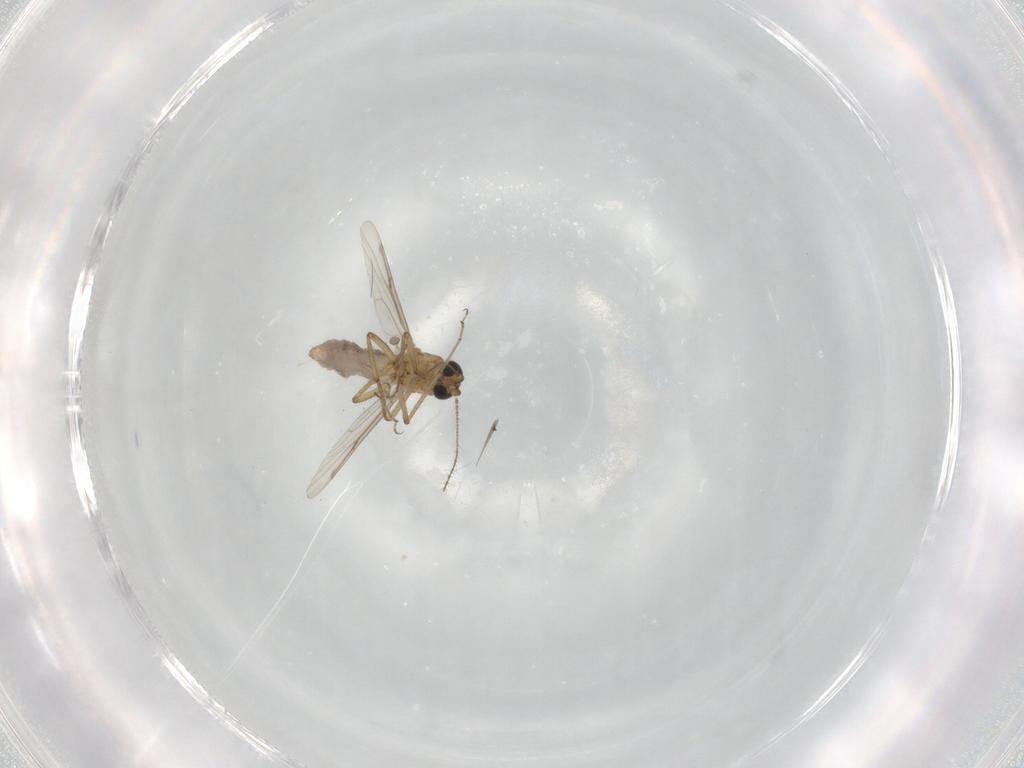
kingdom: Animalia
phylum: Arthropoda
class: Insecta
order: Diptera
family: Ceratopogonidae
